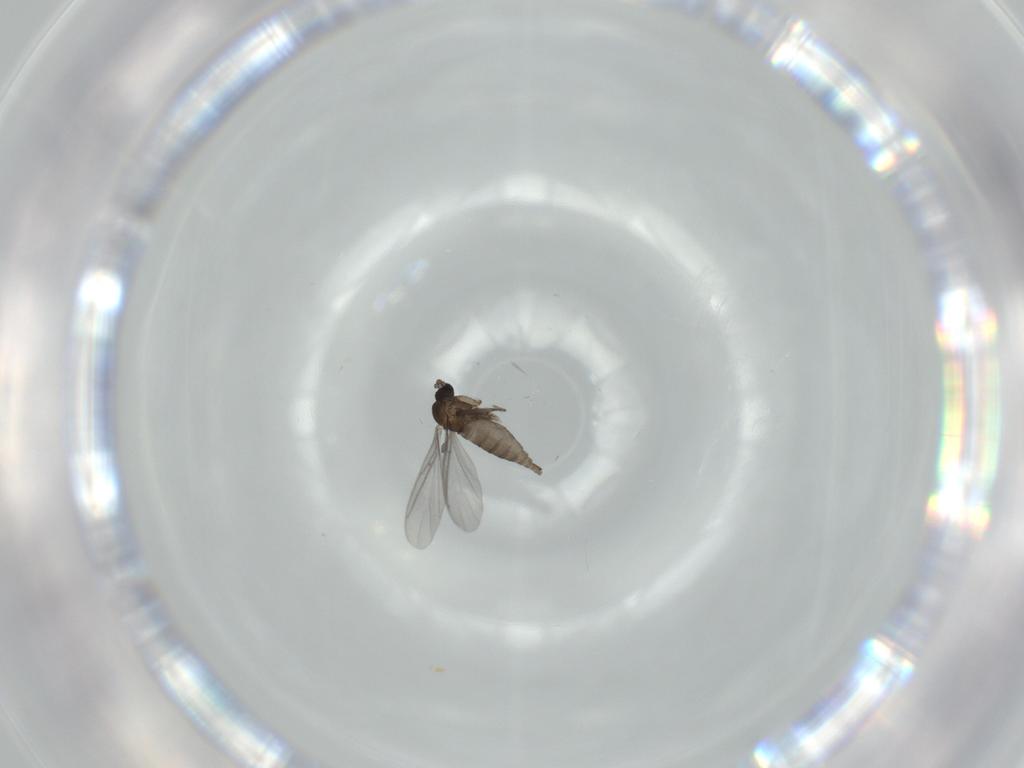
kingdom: Animalia
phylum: Arthropoda
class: Insecta
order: Diptera
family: Sciaridae
